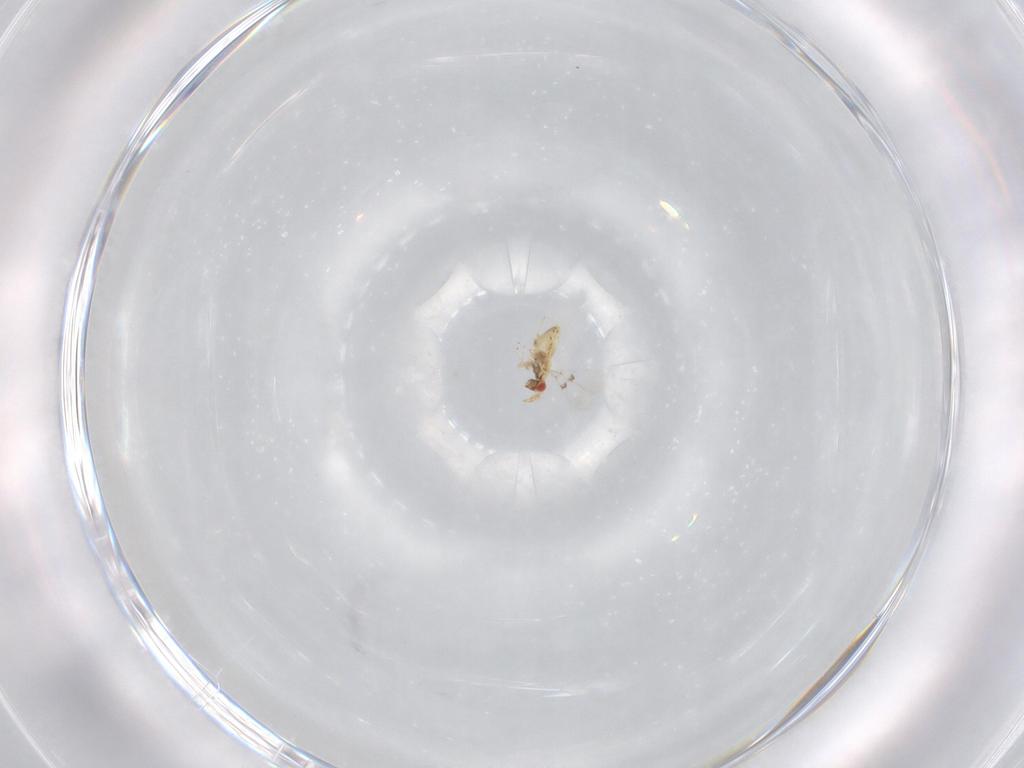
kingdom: Animalia
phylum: Arthropoda
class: Insecta
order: Hymenoptera
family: Trichogrammatidae
